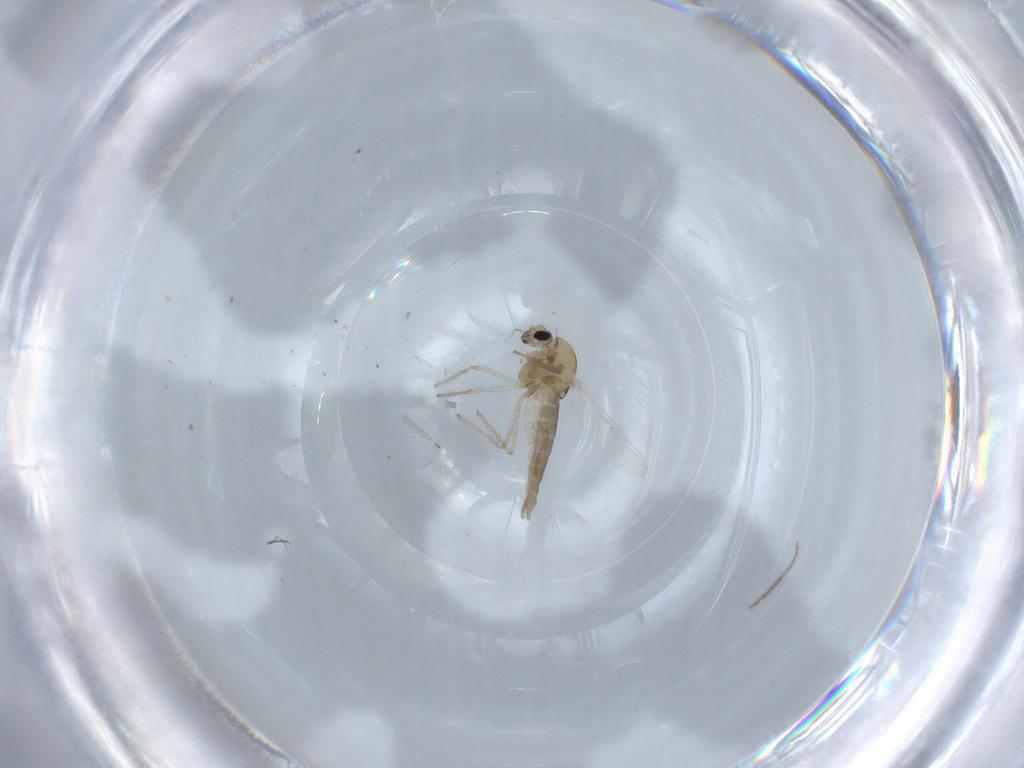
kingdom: Animalia
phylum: Arthropoda
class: Insecta
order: Diptera
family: Chironomidae
